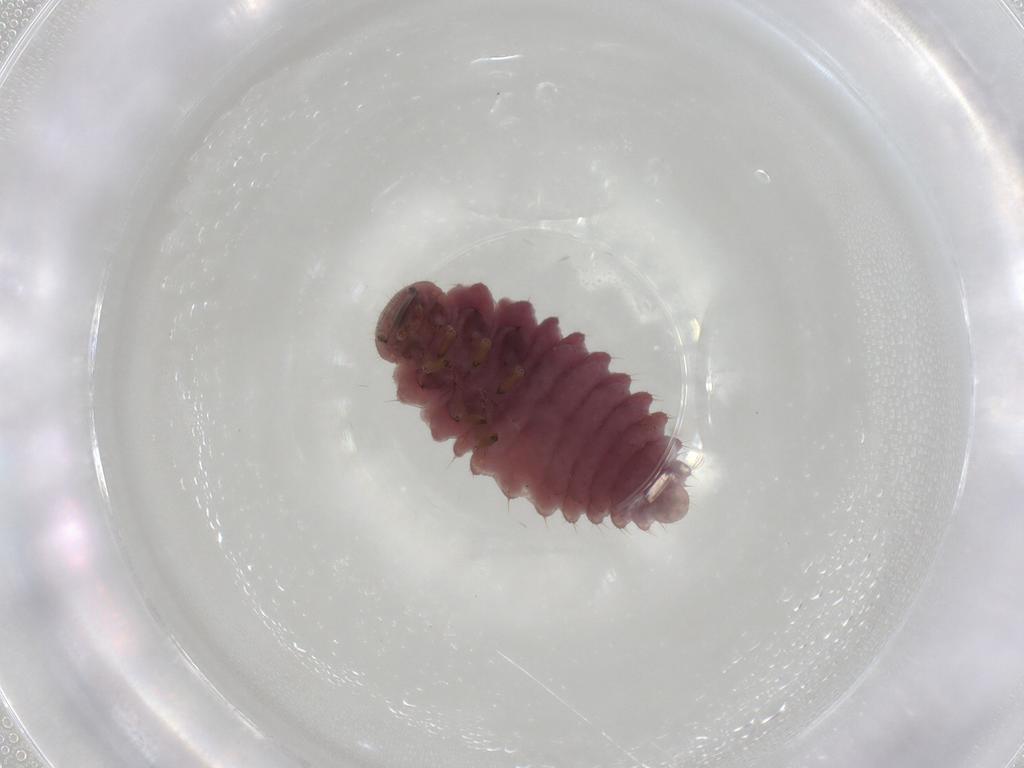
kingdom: Animalia
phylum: Arthropoda
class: Insecta
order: Coleoptera
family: Coccinellidae
